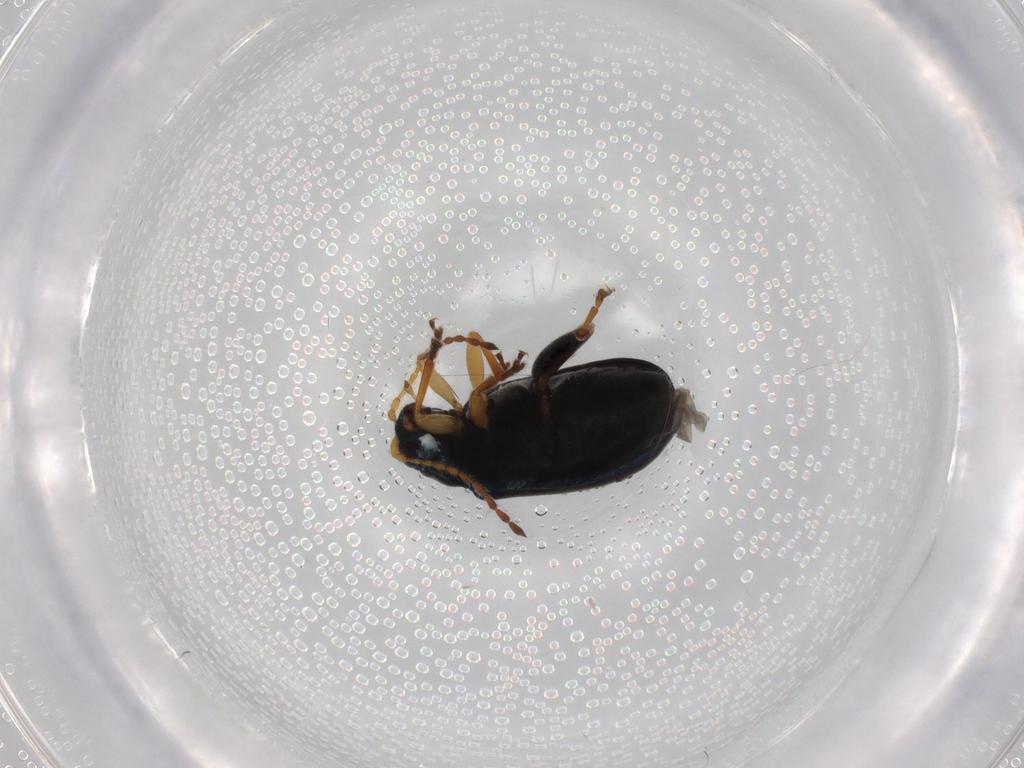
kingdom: Animalia
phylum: Arthropoda
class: Insecta
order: Coleoptera
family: Chrysomelidae
